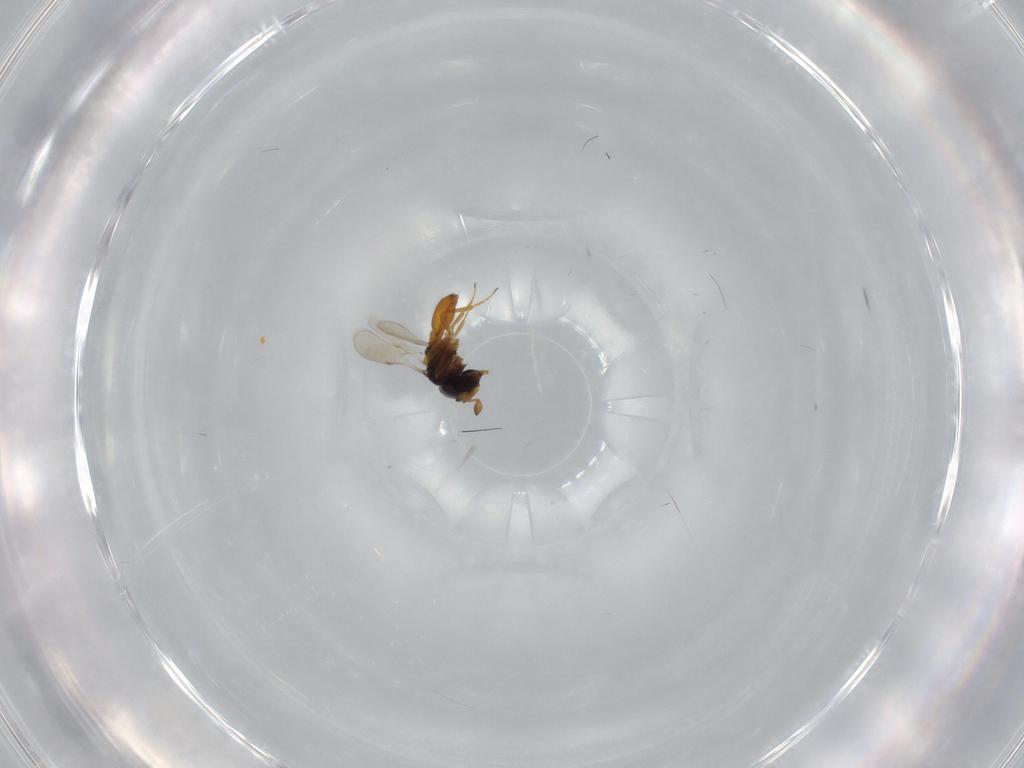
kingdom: Animalia
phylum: Arthropoda
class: Insecta
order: Hymenoptera
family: Scelionidae
